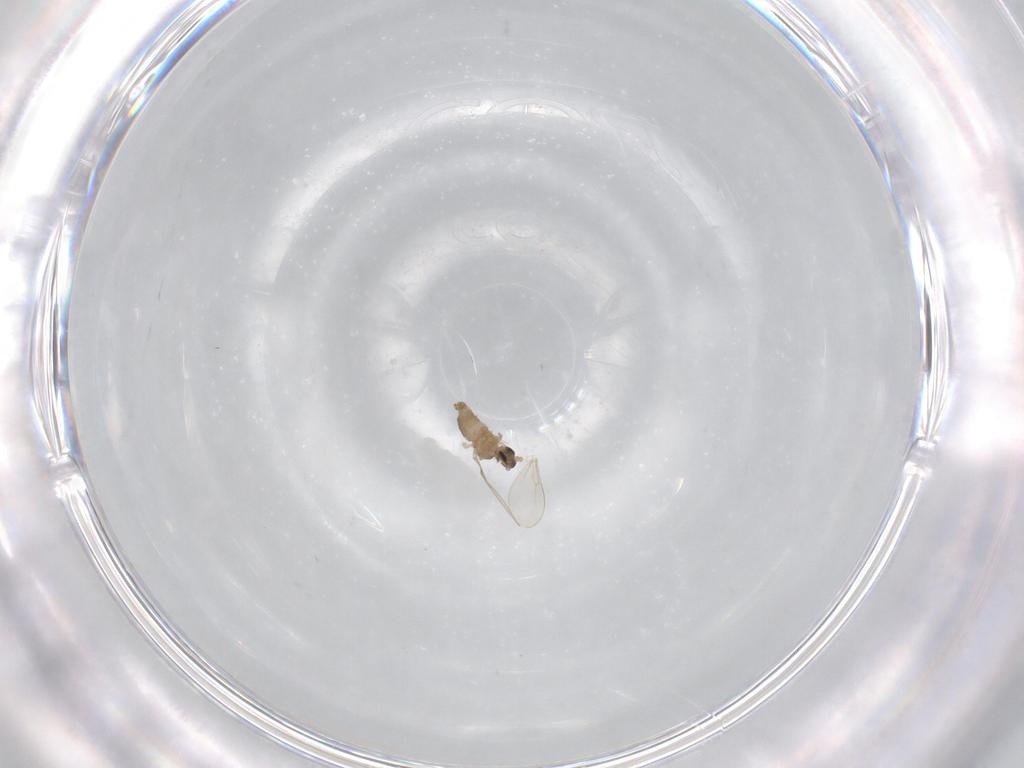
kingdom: Animalia
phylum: Arthropoda
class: Insecta
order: Diptera
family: Cecidomyiidae
